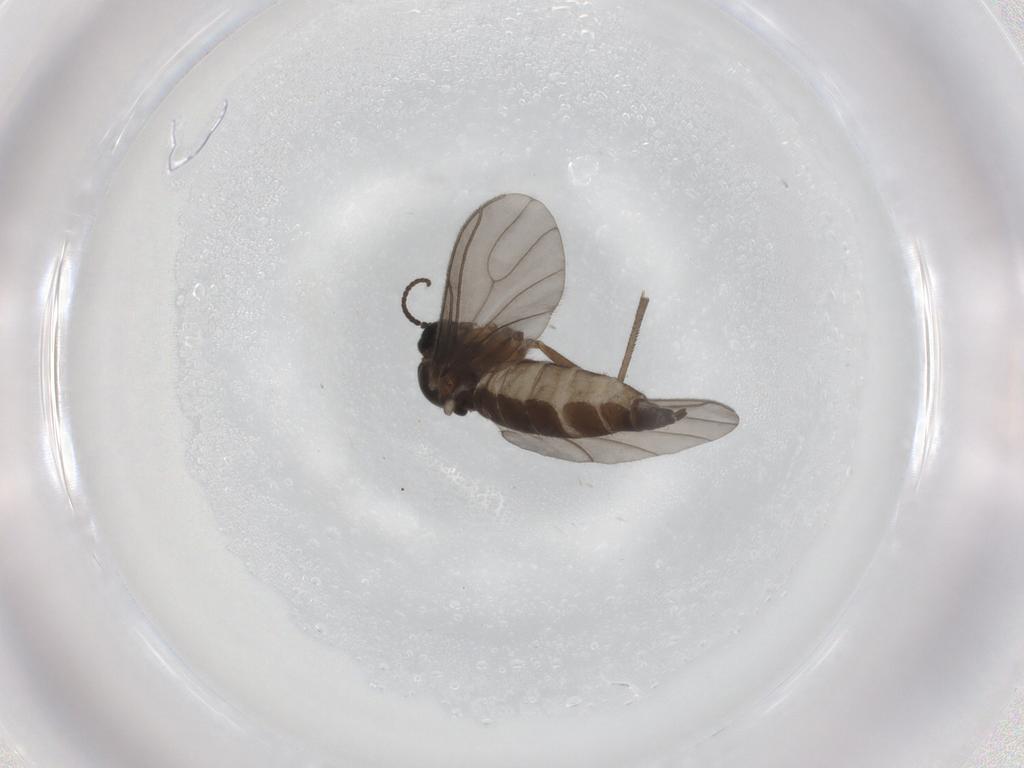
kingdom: Animalia
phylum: Arthropoda
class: Insecta
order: Diptera
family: Sciaridae
